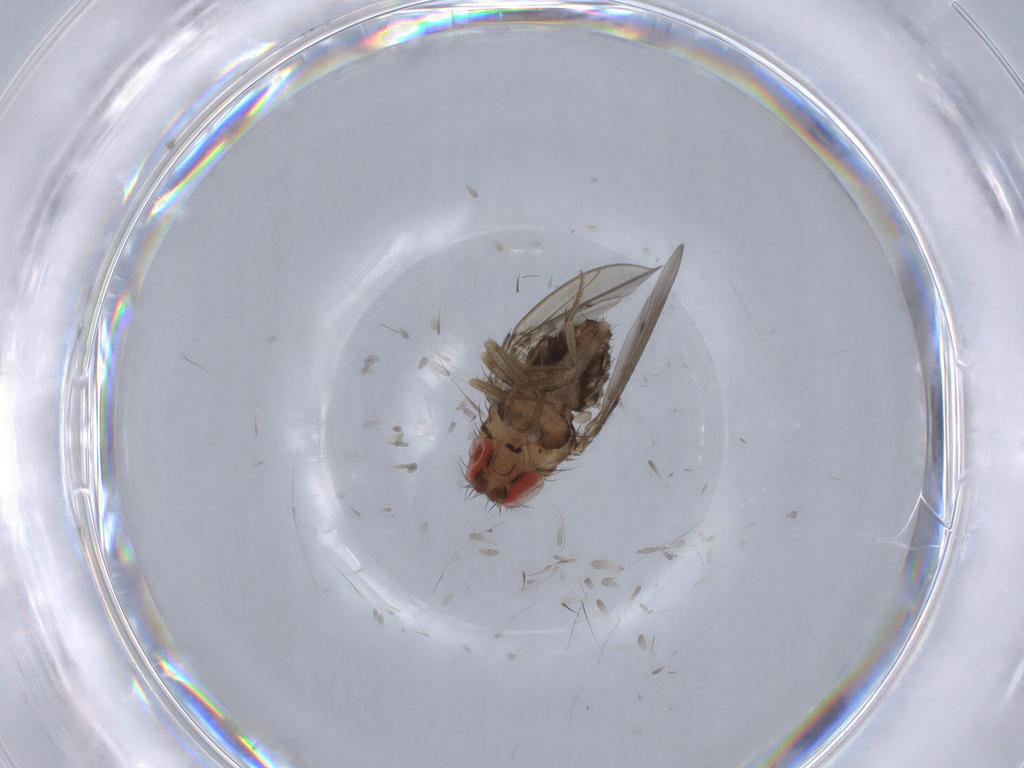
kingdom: Animalia
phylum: Arthropoda
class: Insecta
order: Diptera
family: Drosophilidae
